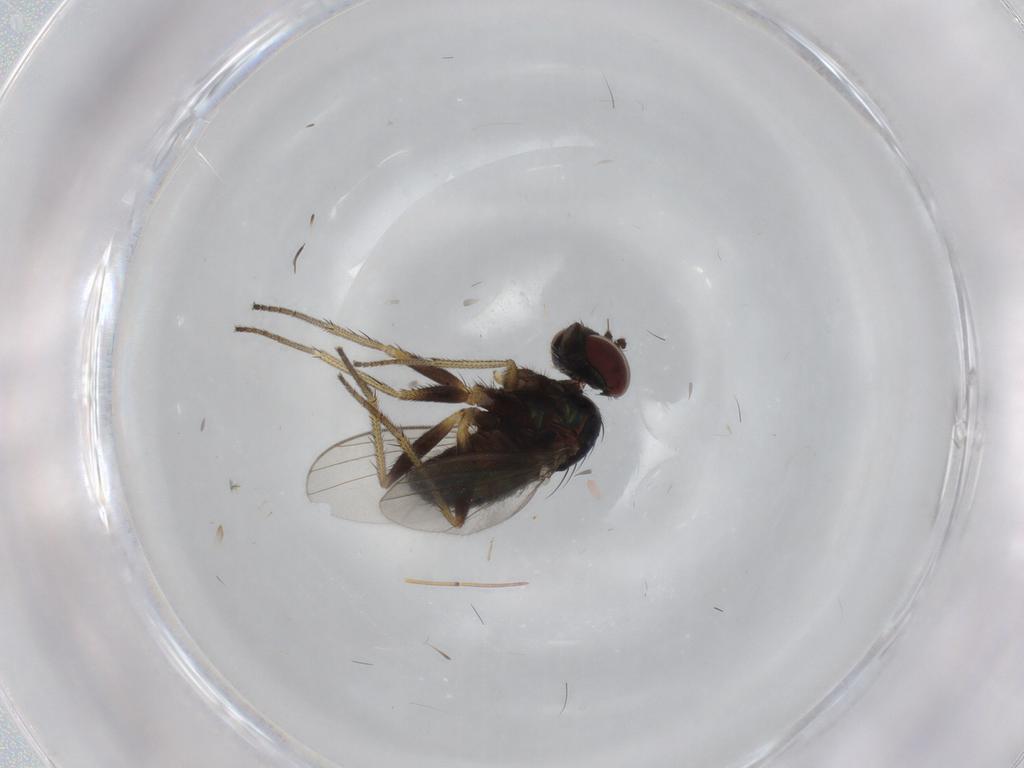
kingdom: Animalia
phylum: Arthropoda
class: Insecta
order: Diptera
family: Dolichopodidae
